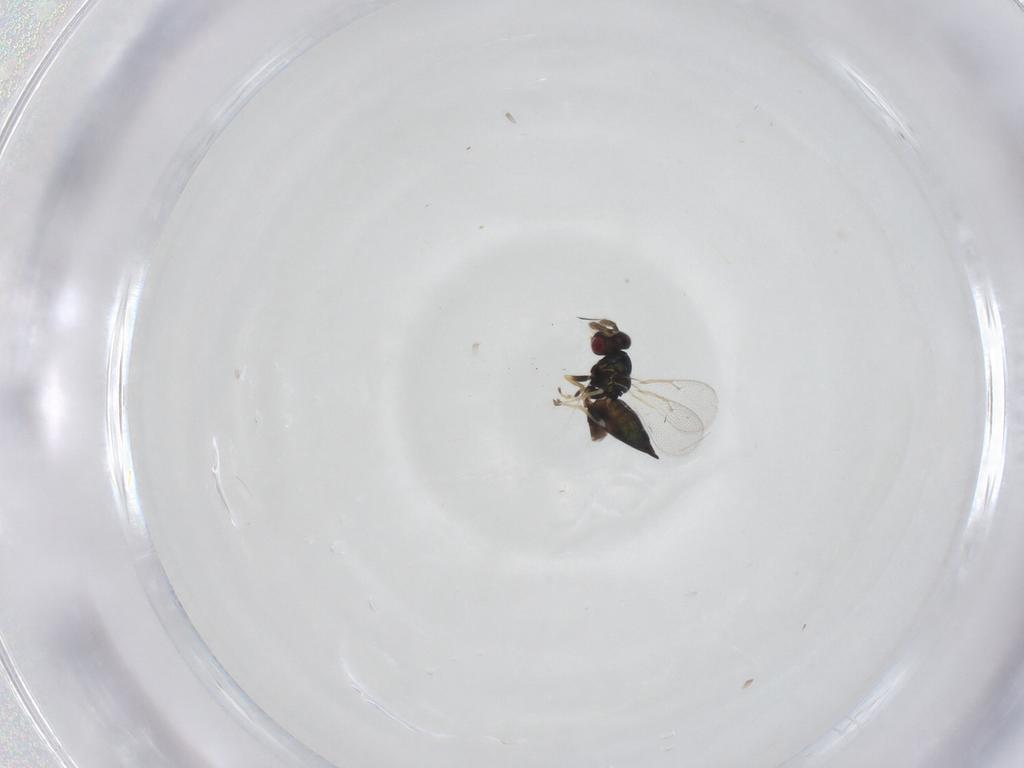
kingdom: Animalia
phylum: Arthropoda
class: Insecta
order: Hymenoptera
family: Eulophidae
